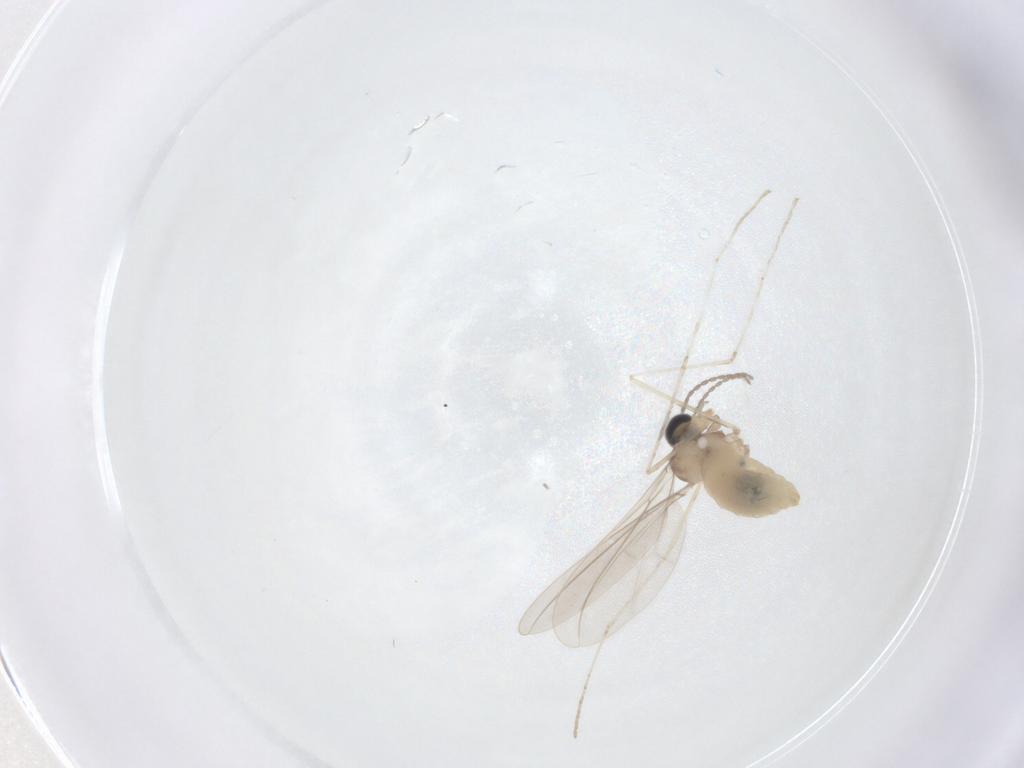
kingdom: Animalia
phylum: Arthropoda
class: Insecta
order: Diptera
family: Cecidomyiidae
